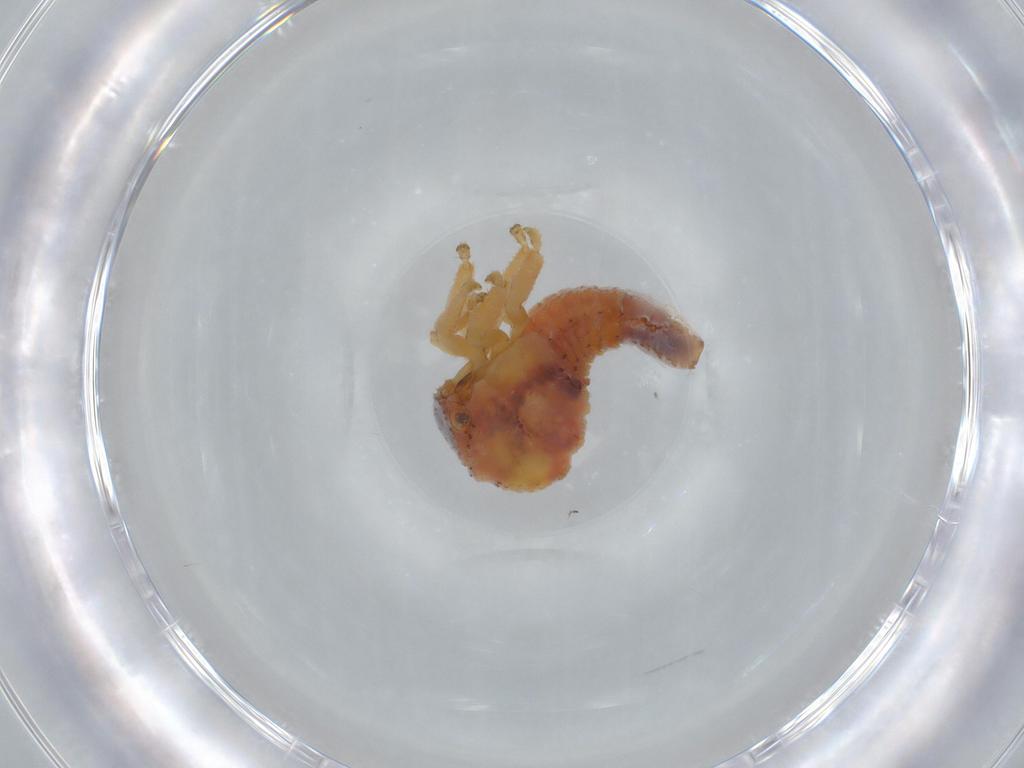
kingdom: Animalia
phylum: Arthropoda
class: Insecta
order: Hemiptera
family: Membracidae
